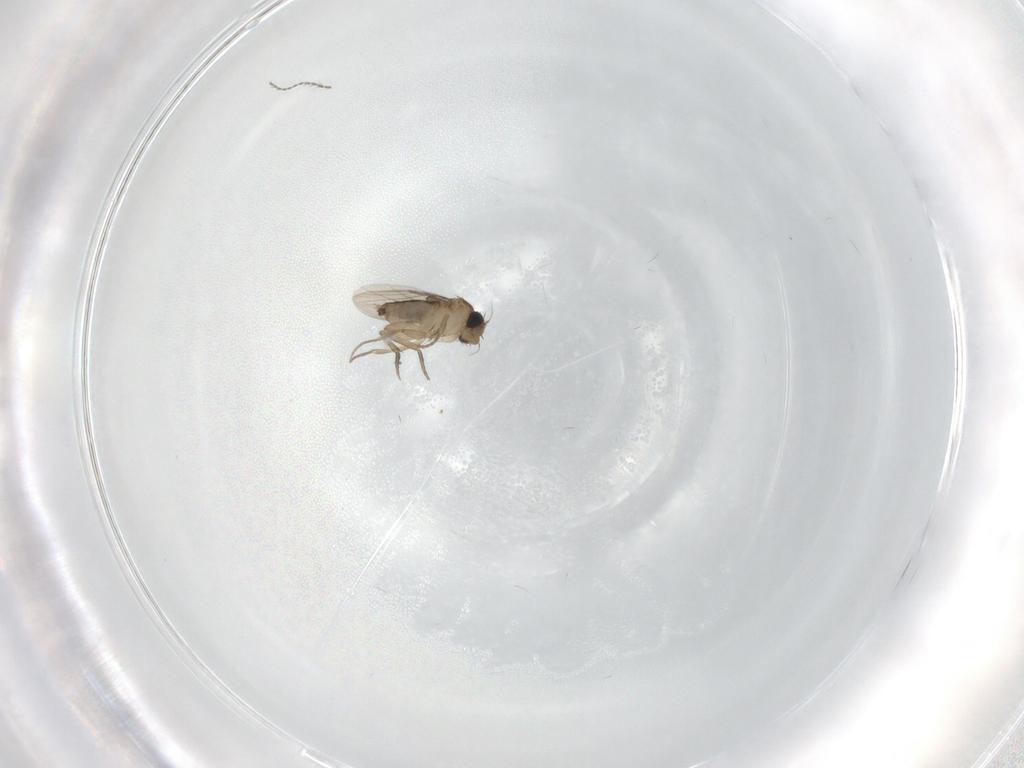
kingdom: Animalia
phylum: Arthropoda
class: Insecta
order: Diptera
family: Phoridae
